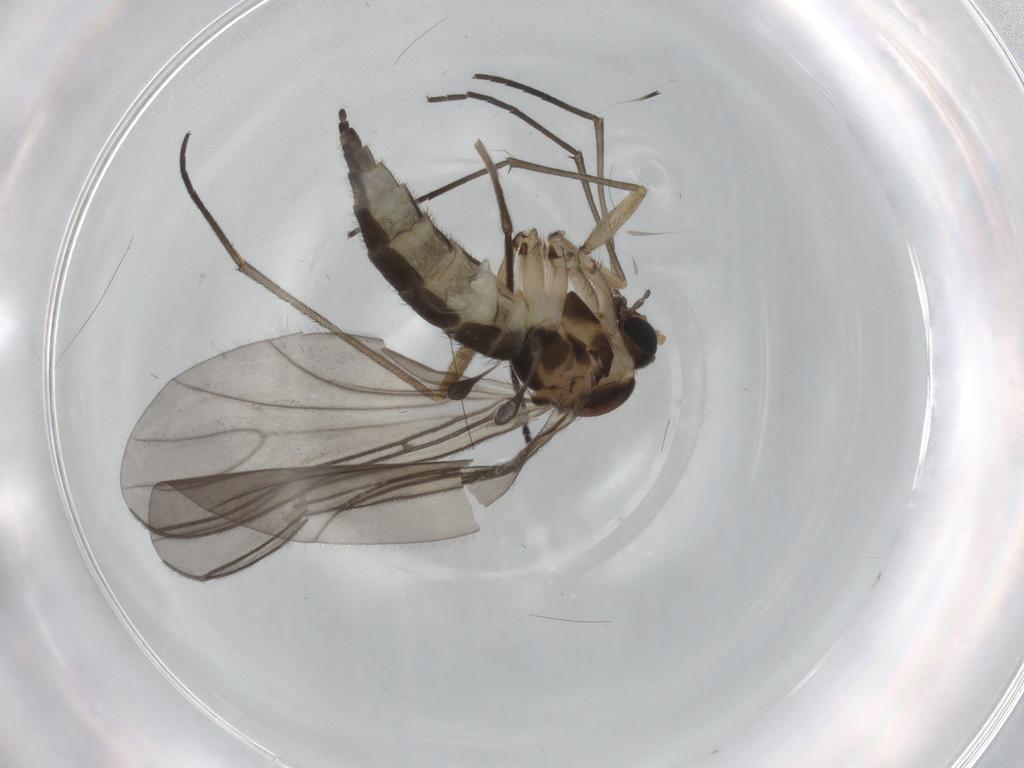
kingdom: Animalia
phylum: Arthropoda
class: Insecta
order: Diptera
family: Sciaridae
